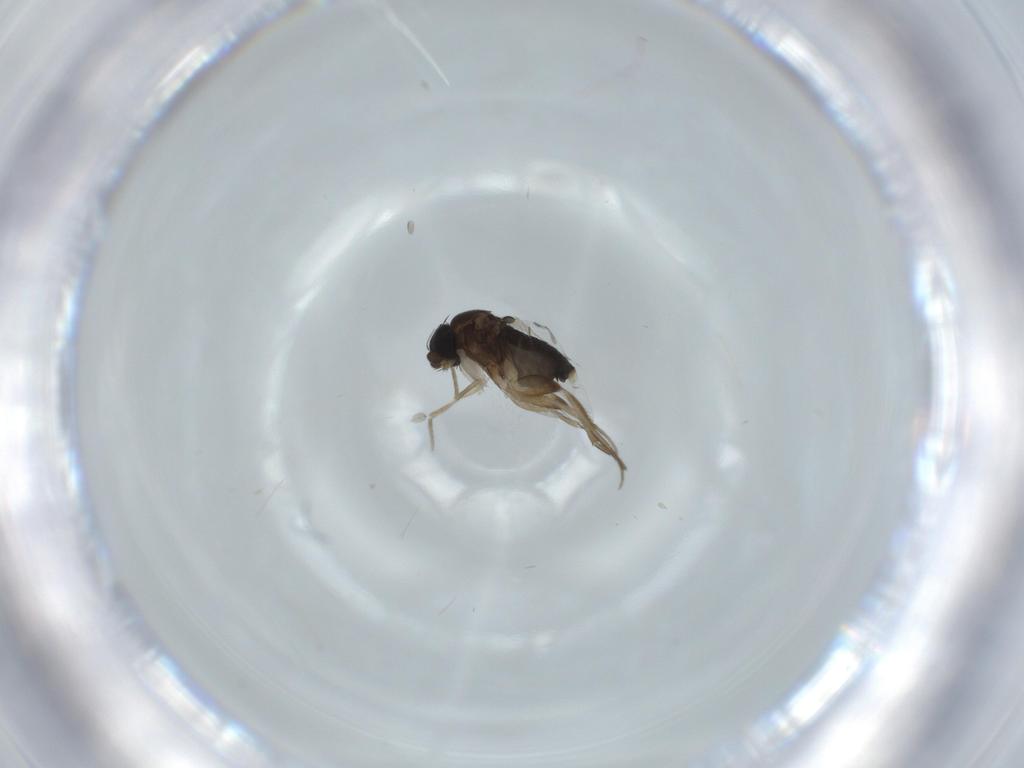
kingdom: Animalia
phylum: Arthropoda
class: Insecta
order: Diptera
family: Phoridae
